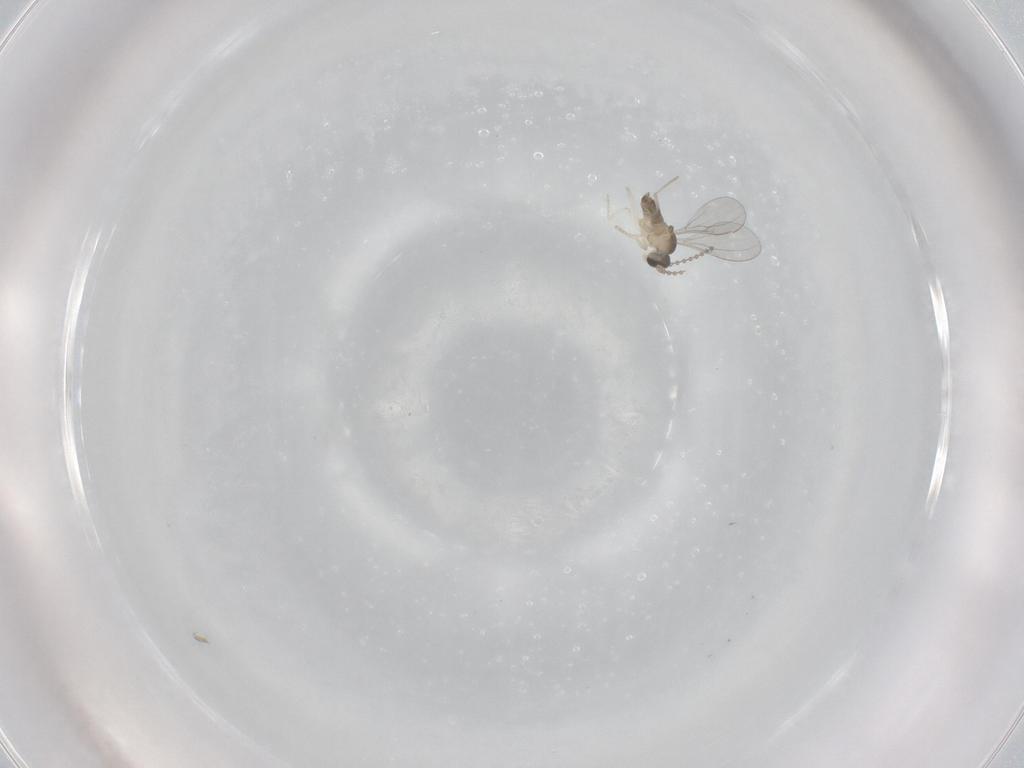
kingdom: Animalia
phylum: Arthropoda
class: Insecta
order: Diptera
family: Cecidomyiidae
